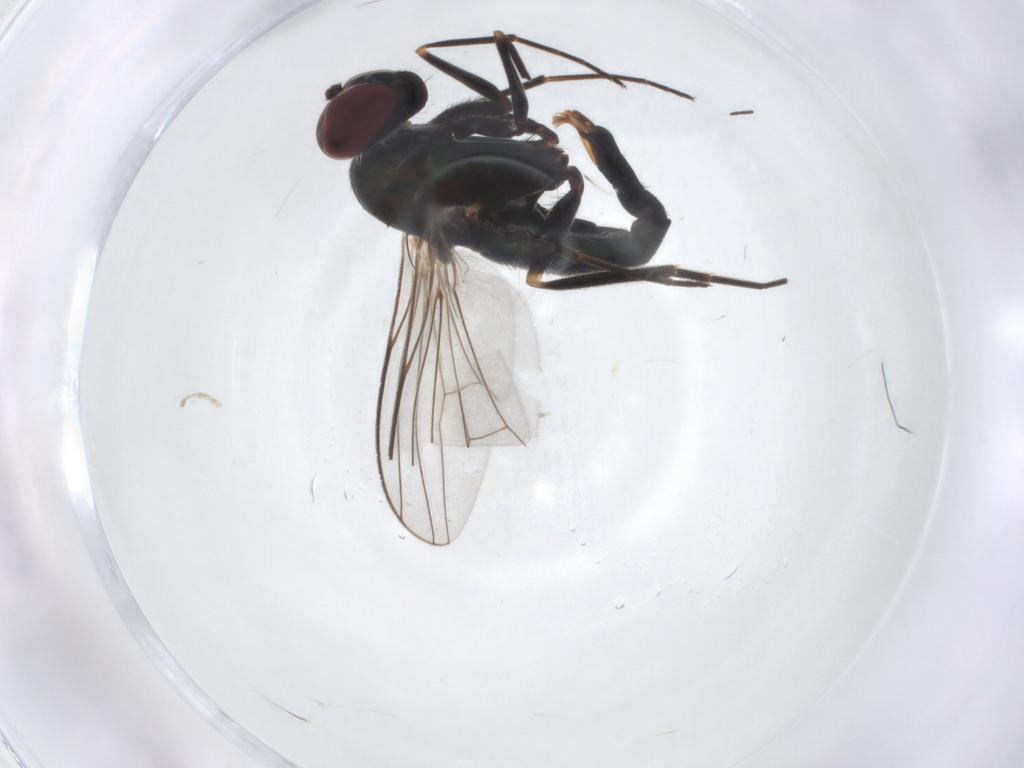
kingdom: Animalia
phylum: Arthropoda
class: Insecta
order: Diptera
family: Dolichopodidae
